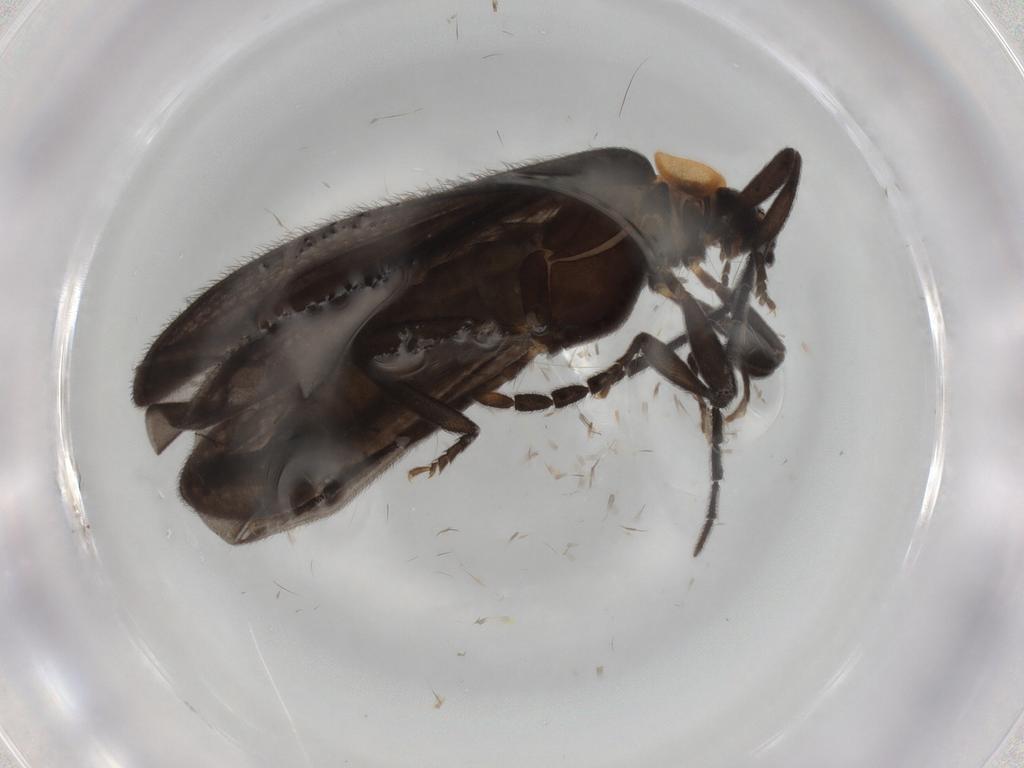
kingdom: Animalia
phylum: Arthropoda
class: Insecta
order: Coleoptera
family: Lycidae
